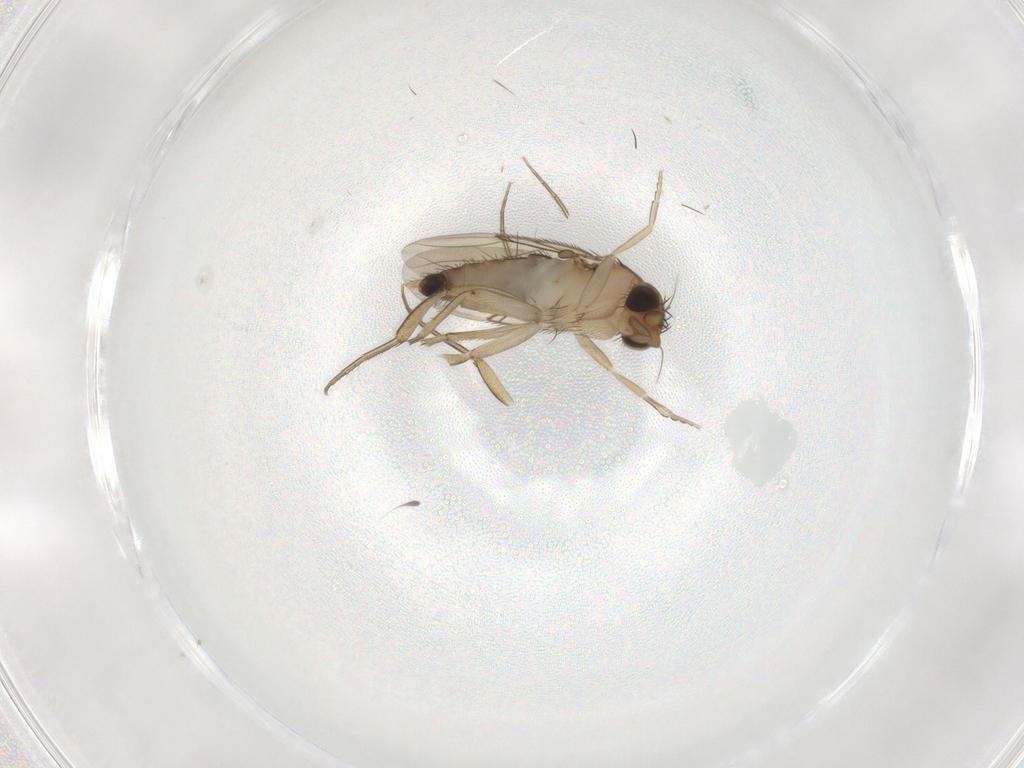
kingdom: Animalia
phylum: Arthropoda
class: Insecta
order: Diptera
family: Phoridae
